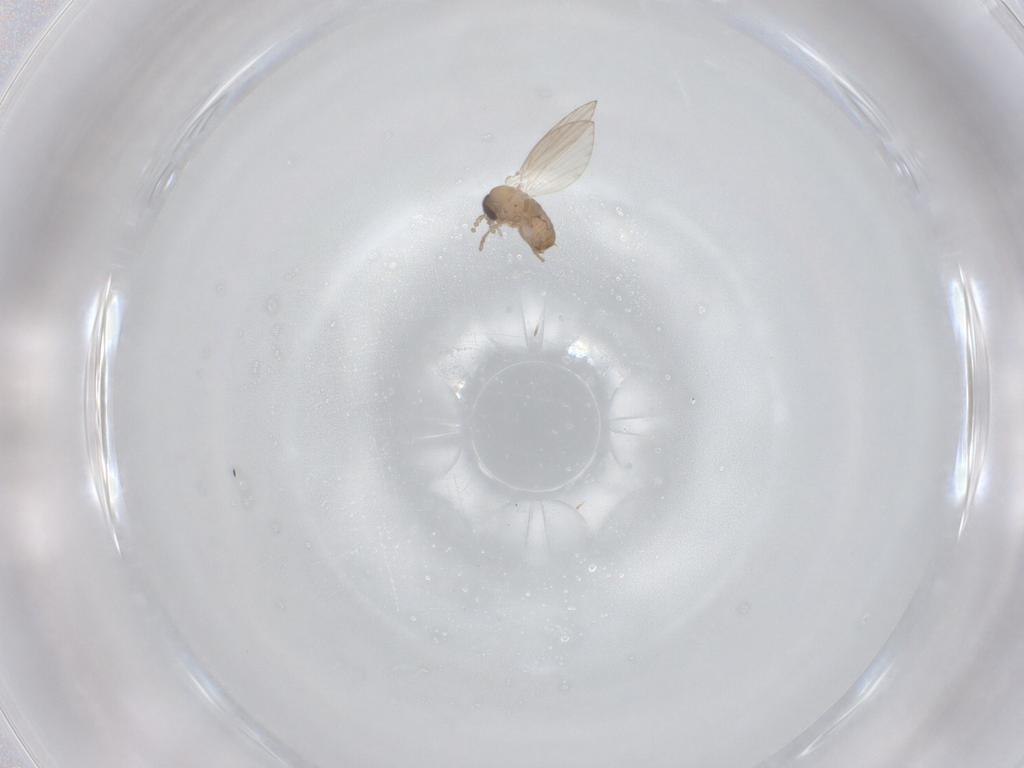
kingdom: Animalia
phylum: Arthropoda
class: Insecta
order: Diptera
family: Psychodidae
